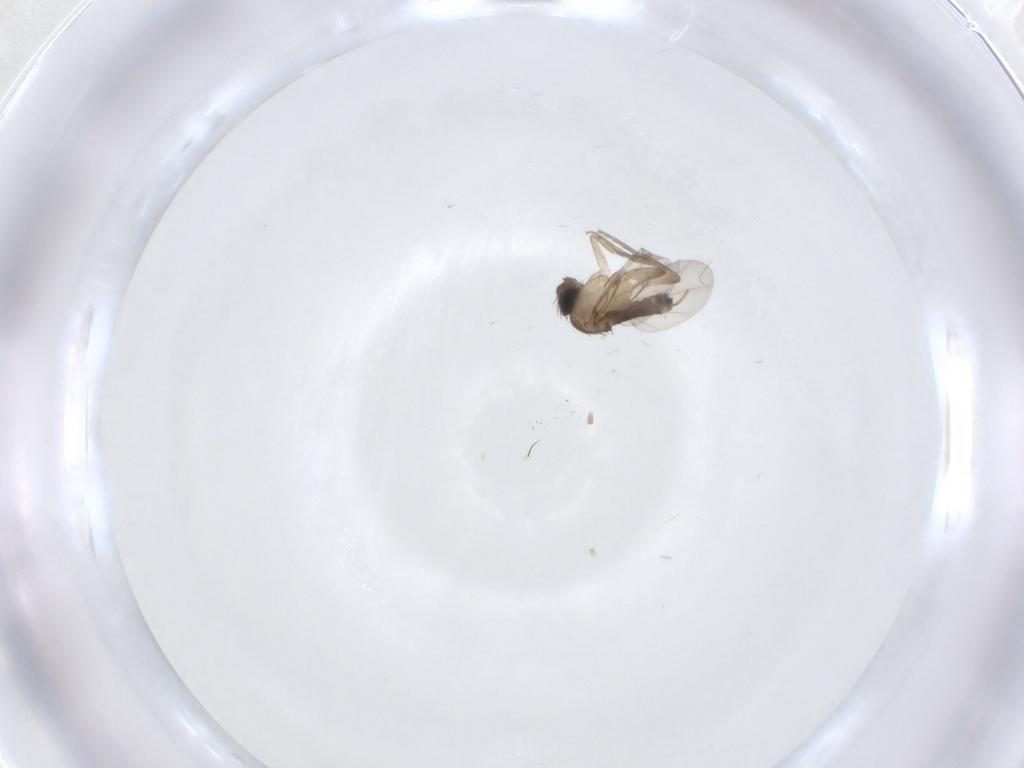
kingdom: Animalia
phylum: Arthropoda
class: Insecta
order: Diptera
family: Phoridae
